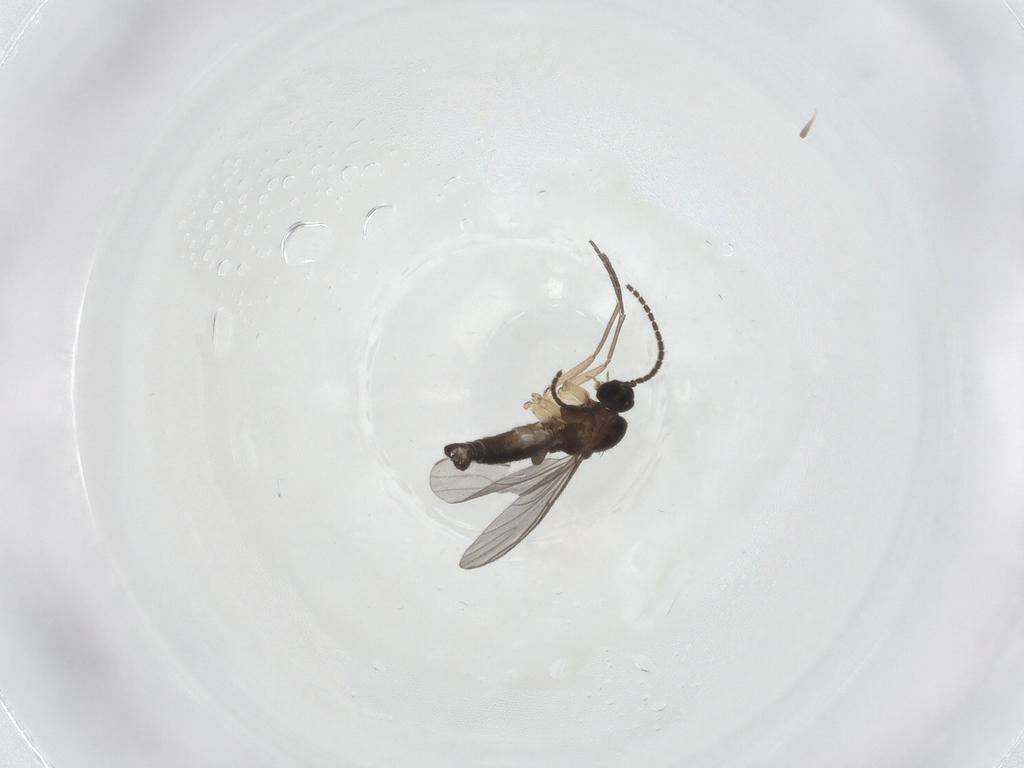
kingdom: Animalia
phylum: Arthropoda
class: Insecta
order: Diptera
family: Sciaridae
